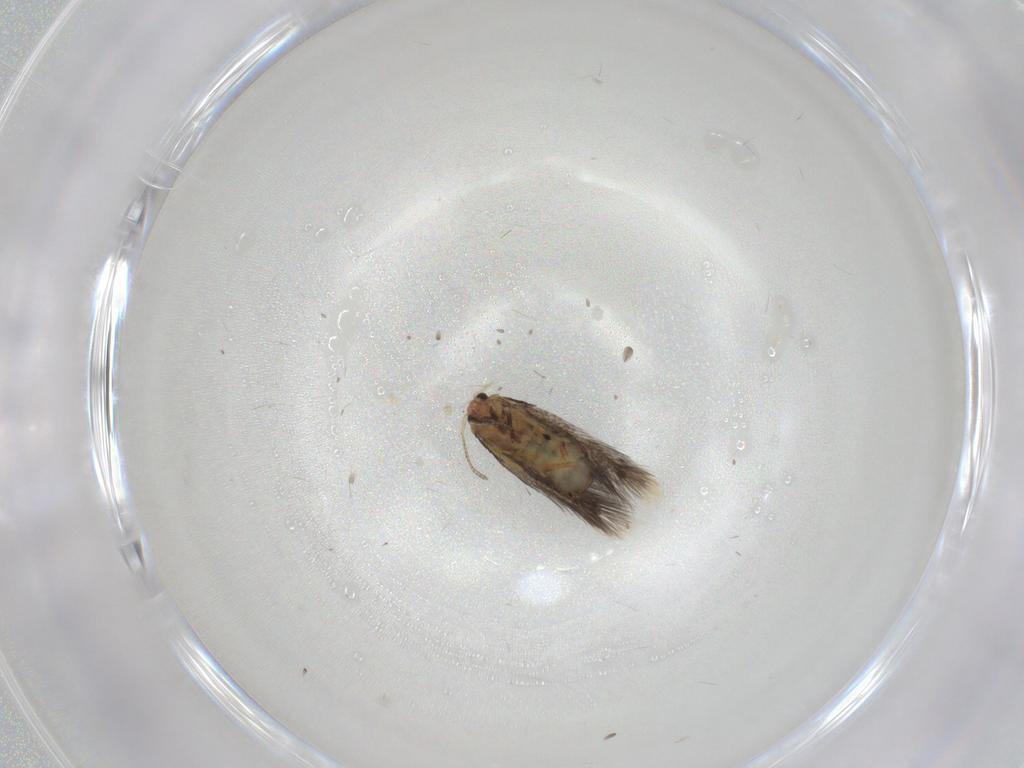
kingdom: Animalia
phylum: Arthropoda
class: Insecta
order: Lepidoptera
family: Nepticulidae
